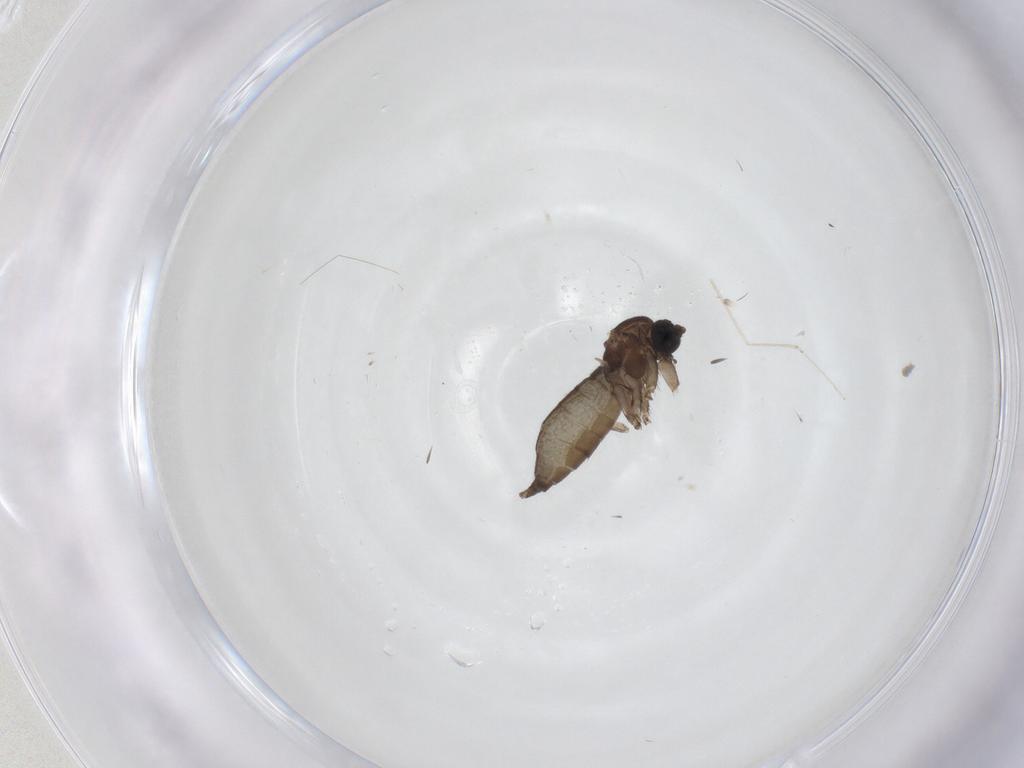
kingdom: Animalia
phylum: Arthropoda
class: Insecta
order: Diptera
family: Sciaridae
